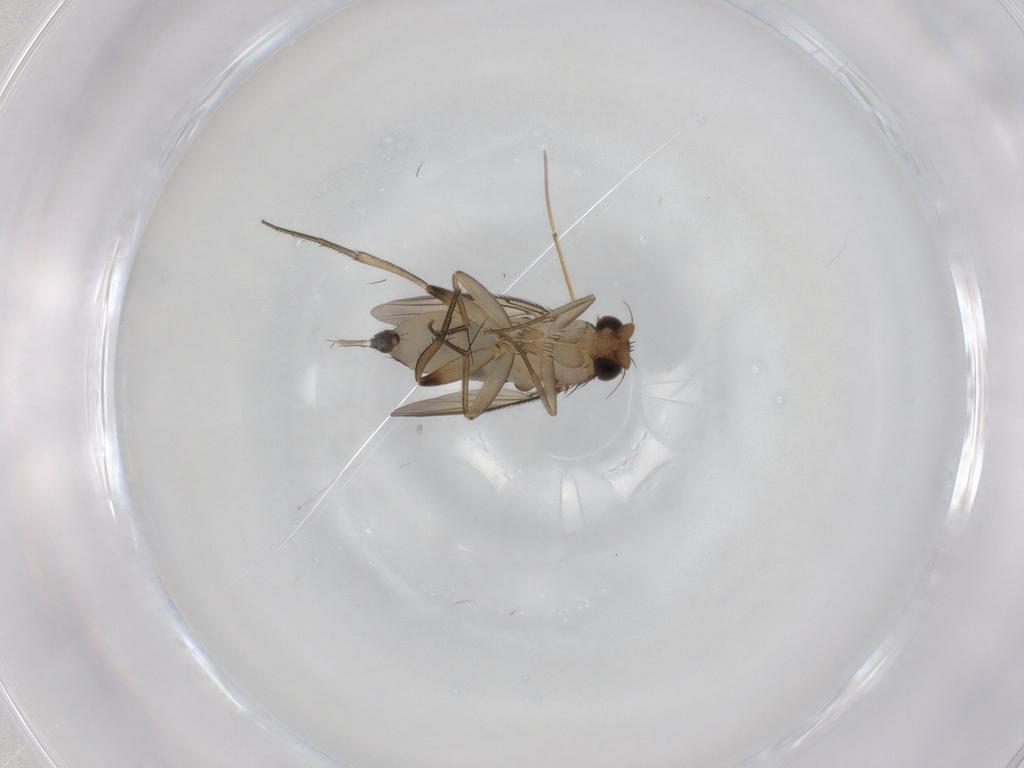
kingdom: Animalia
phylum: Arthropoda
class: Insecta
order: Diptera
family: Phoridae
